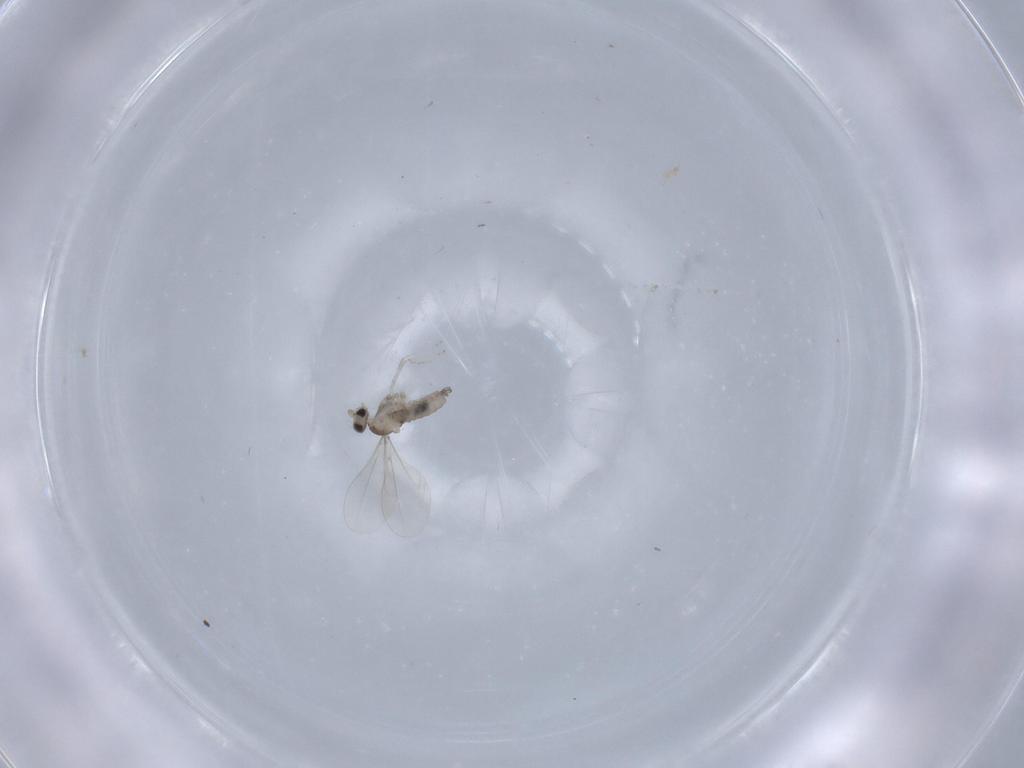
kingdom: Animalia
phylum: Arthropoda
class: Insecta
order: Diptera
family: Cecidomyiidae
